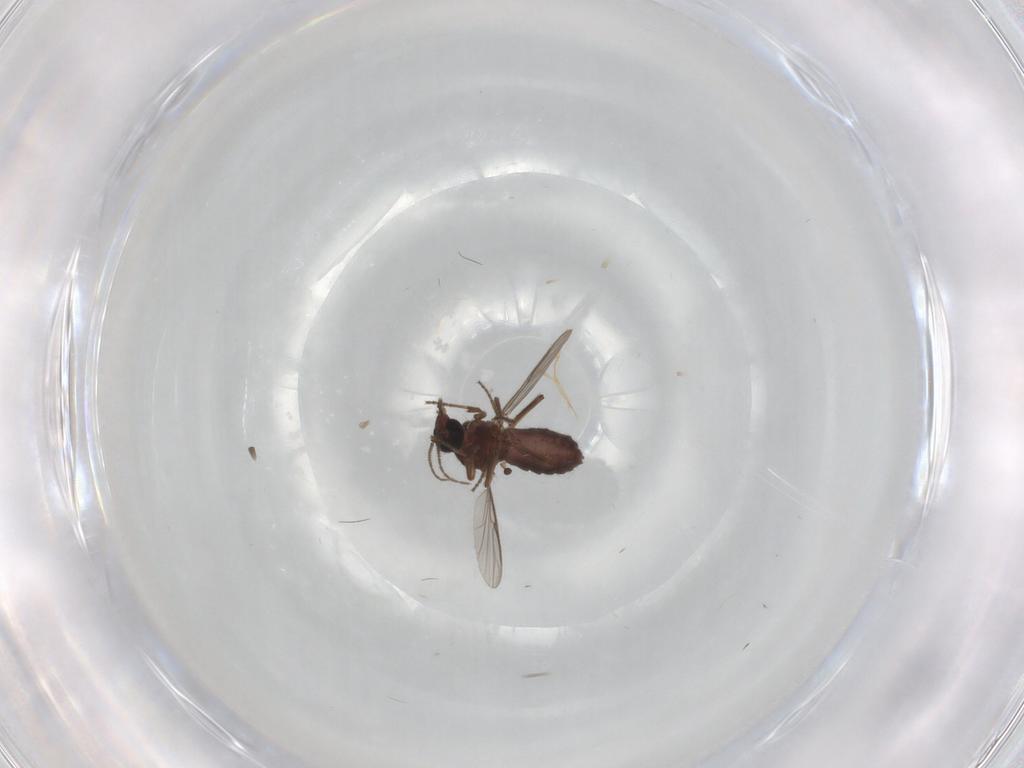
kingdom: Animalia
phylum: Arthropoda
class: Insecta
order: Diptera
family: Ceratopogonidae
